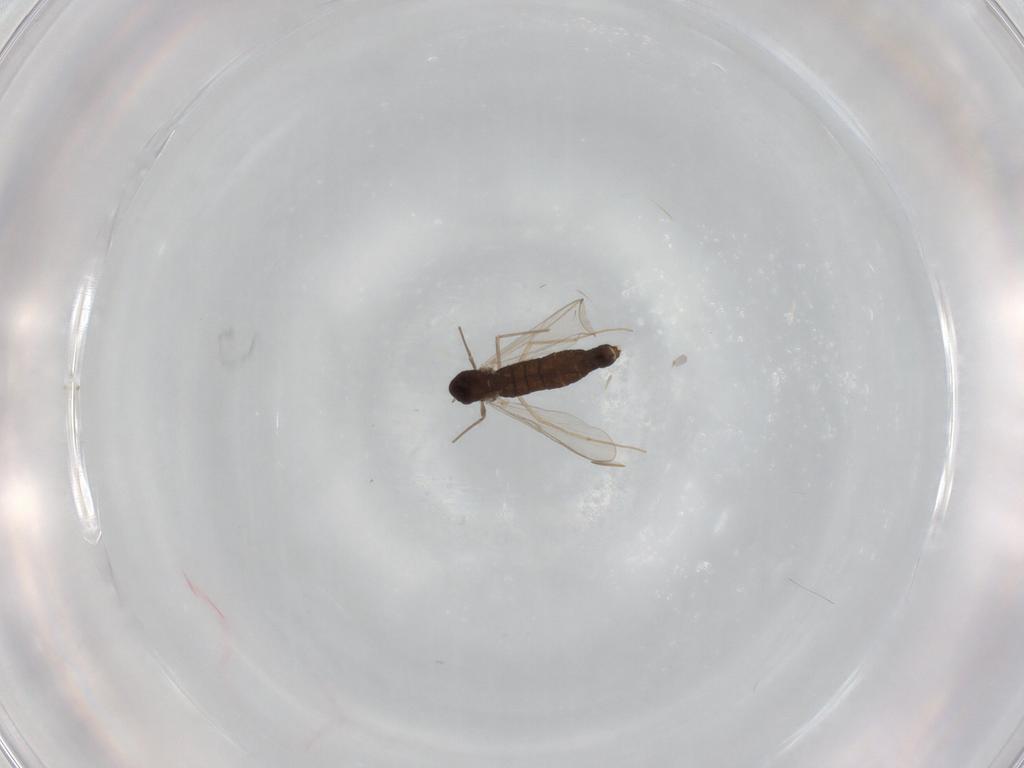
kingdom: Animalia
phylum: Arthropoda
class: Insecta
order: Diptera
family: Chironomidae
